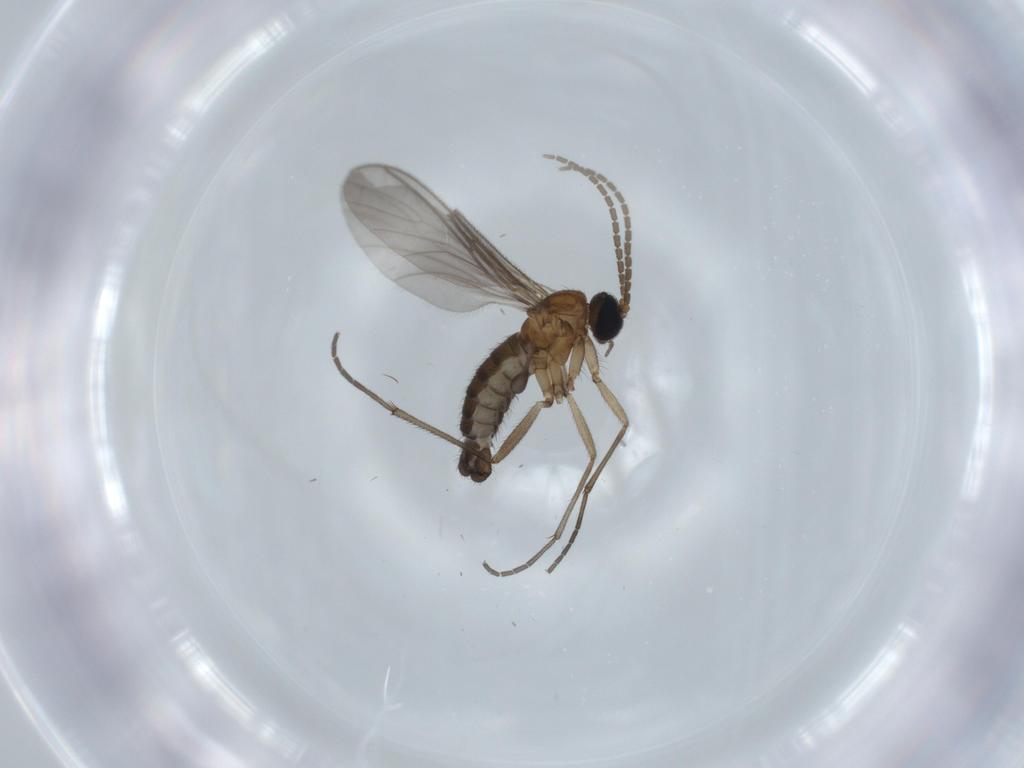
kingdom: Animalia
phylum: Arthropoda
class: Insecta
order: Diptera
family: Sciaridae
